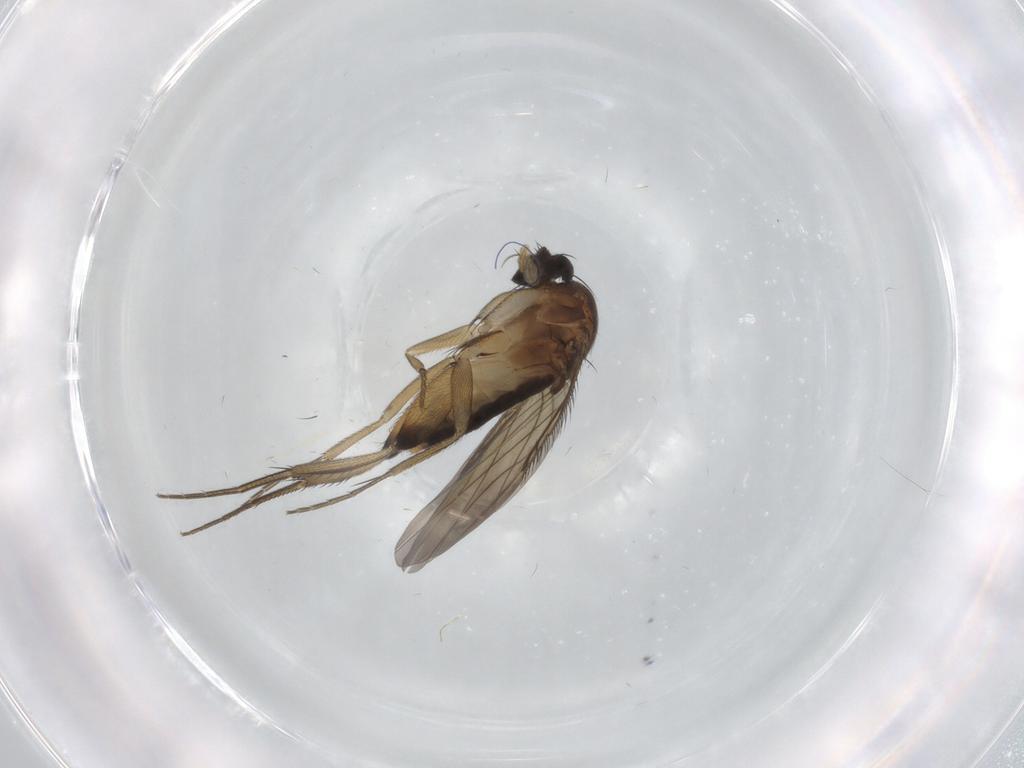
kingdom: Animalia
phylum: Arthropoda
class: Insecta
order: Diptera
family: Phoridae
